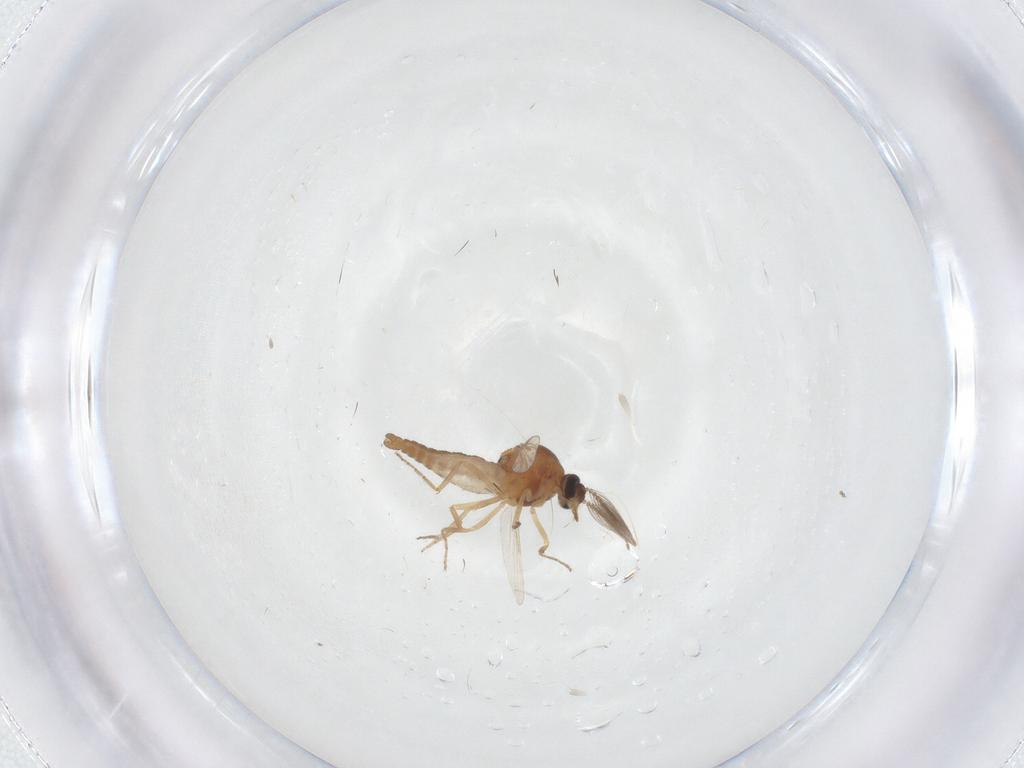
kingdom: Animalia
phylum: Arthropoda
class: Insecta
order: Diptera
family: Ceratopogonidae
